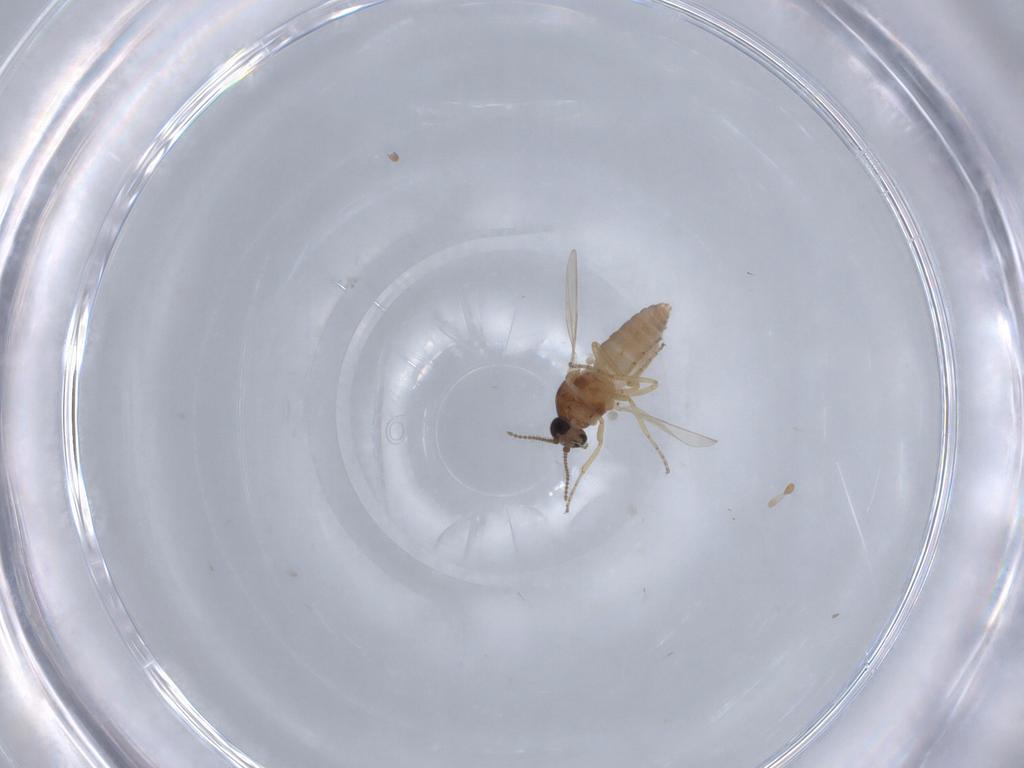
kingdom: Animalia
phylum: Arthropoda
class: Insecta
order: Diptera
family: Ceratopogonidae
